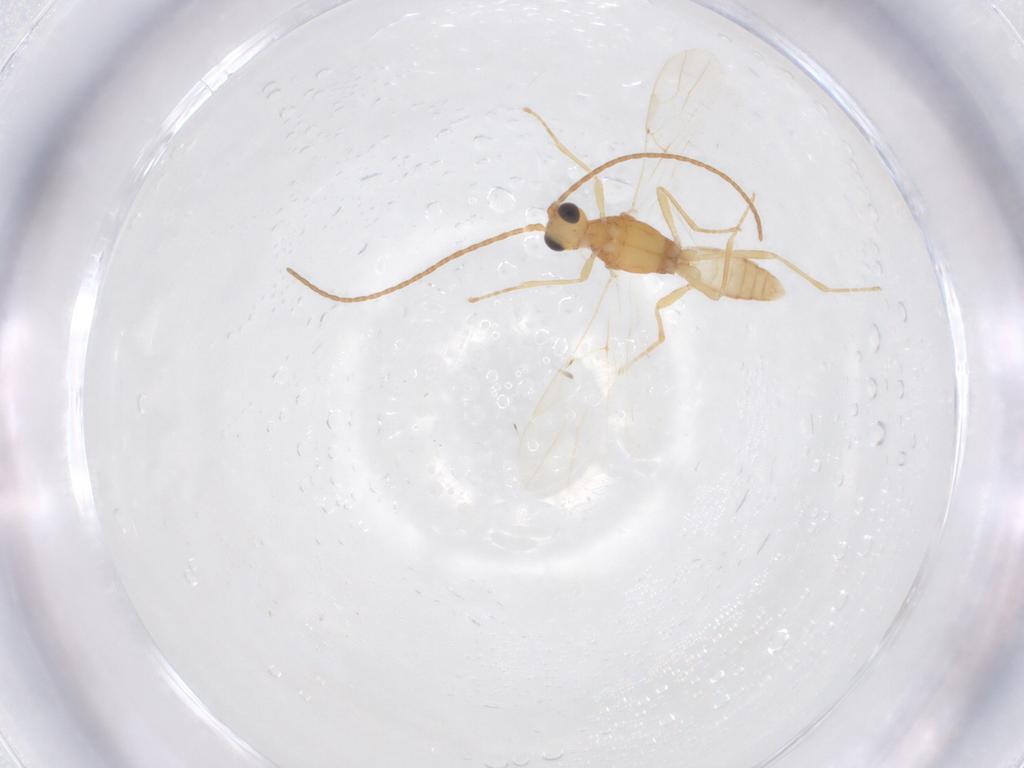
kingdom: Animalia
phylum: Arthropoda
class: Insecta
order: Hymenoptera
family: Braconidae
